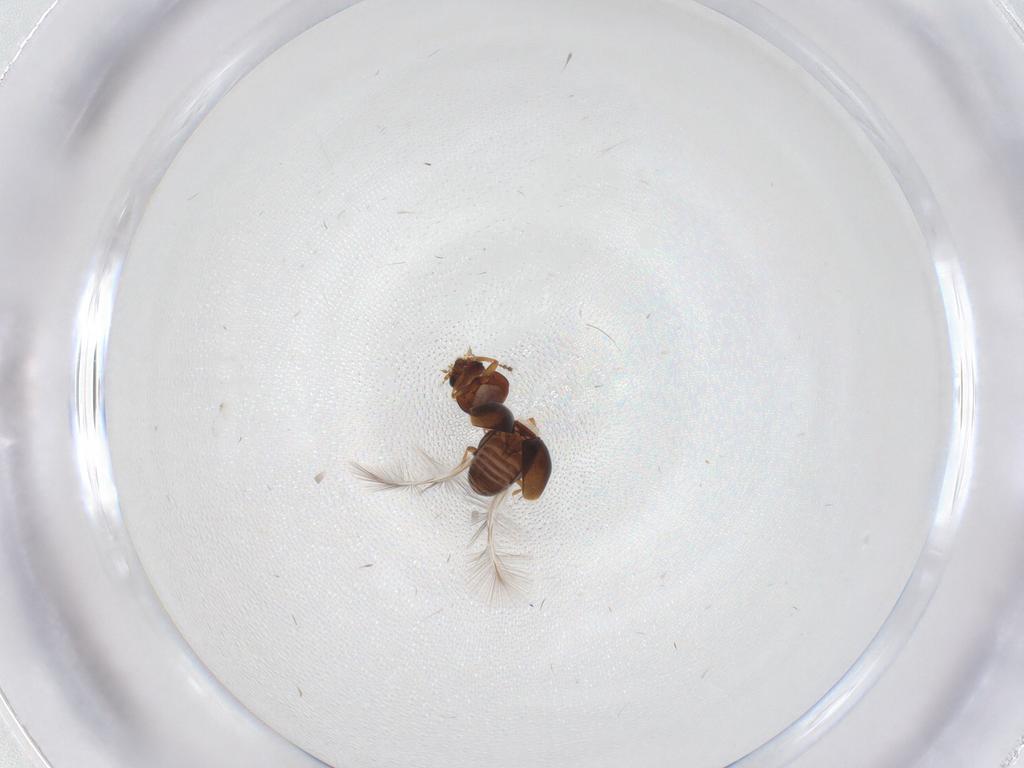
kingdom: Animalia
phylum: Arthropoda
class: Insecta
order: Coleoptera
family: Ptiliidae
